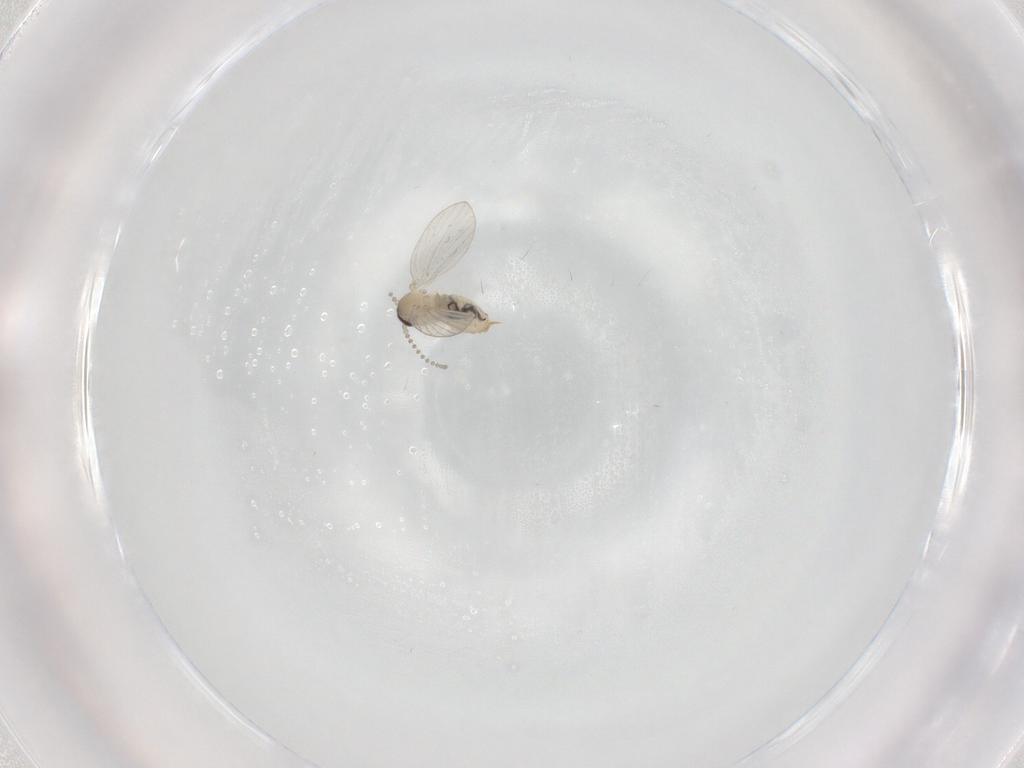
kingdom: Animalia
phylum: Arthropoda
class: Insecta
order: Diptera
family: Psychodidae
